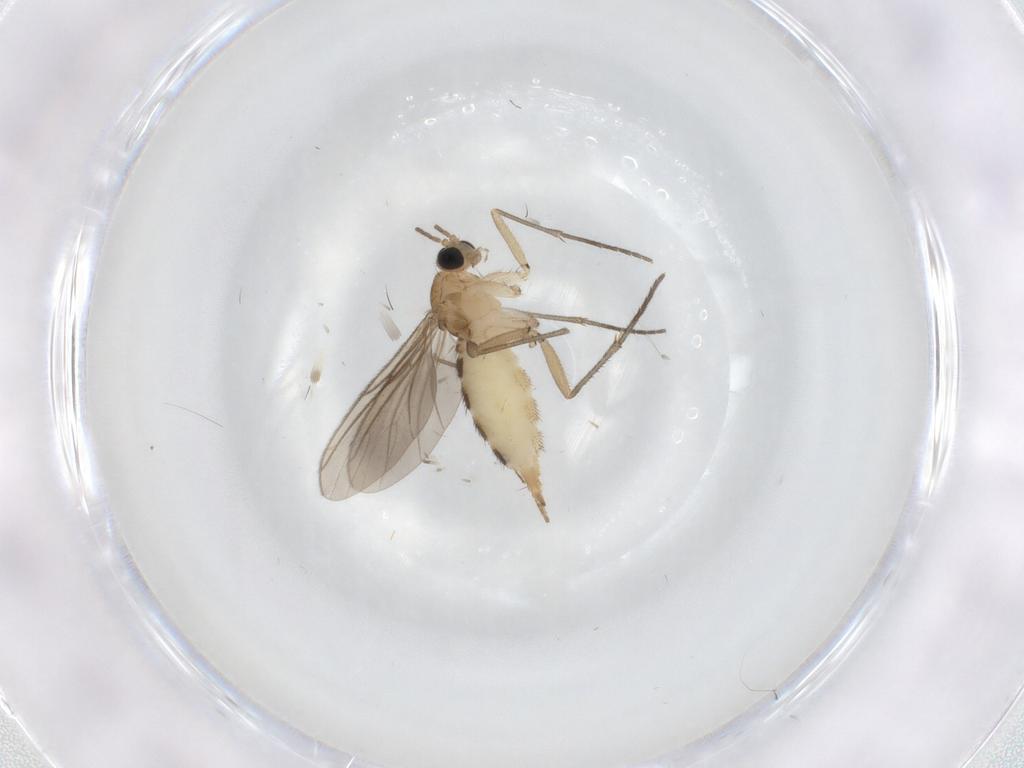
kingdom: Animalia
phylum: Arthropoda
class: Insecta
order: Diptera
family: Sciaridae
